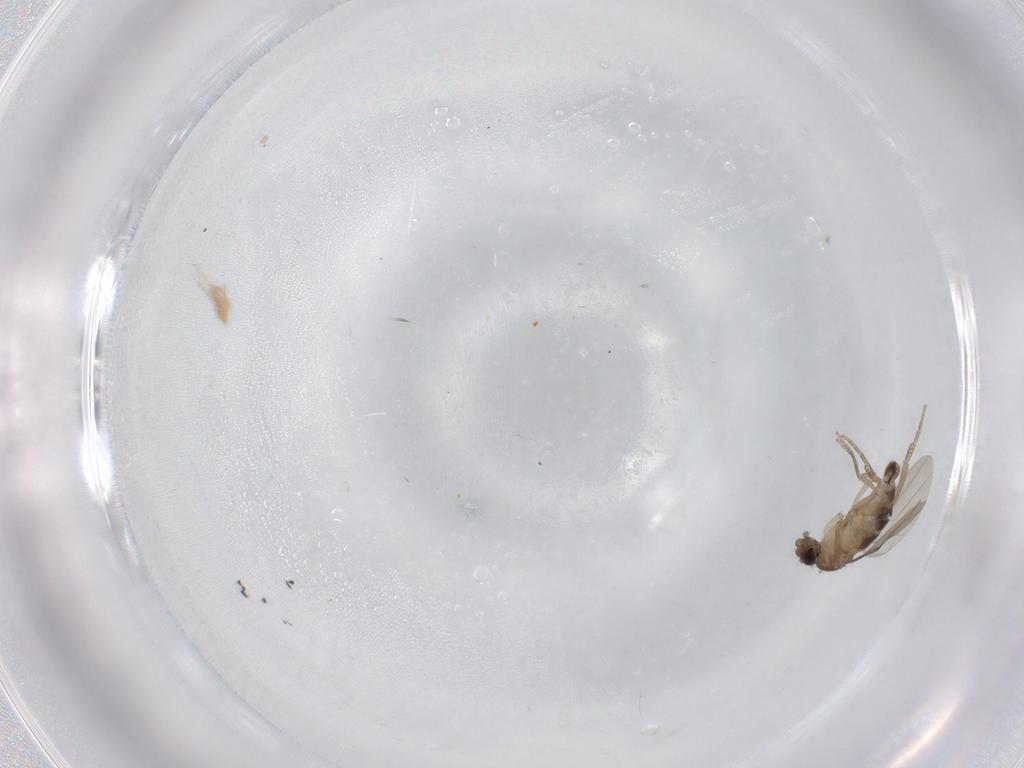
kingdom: Animalia
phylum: Arthropoda
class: Insecta
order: Diptera
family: Phoridae
